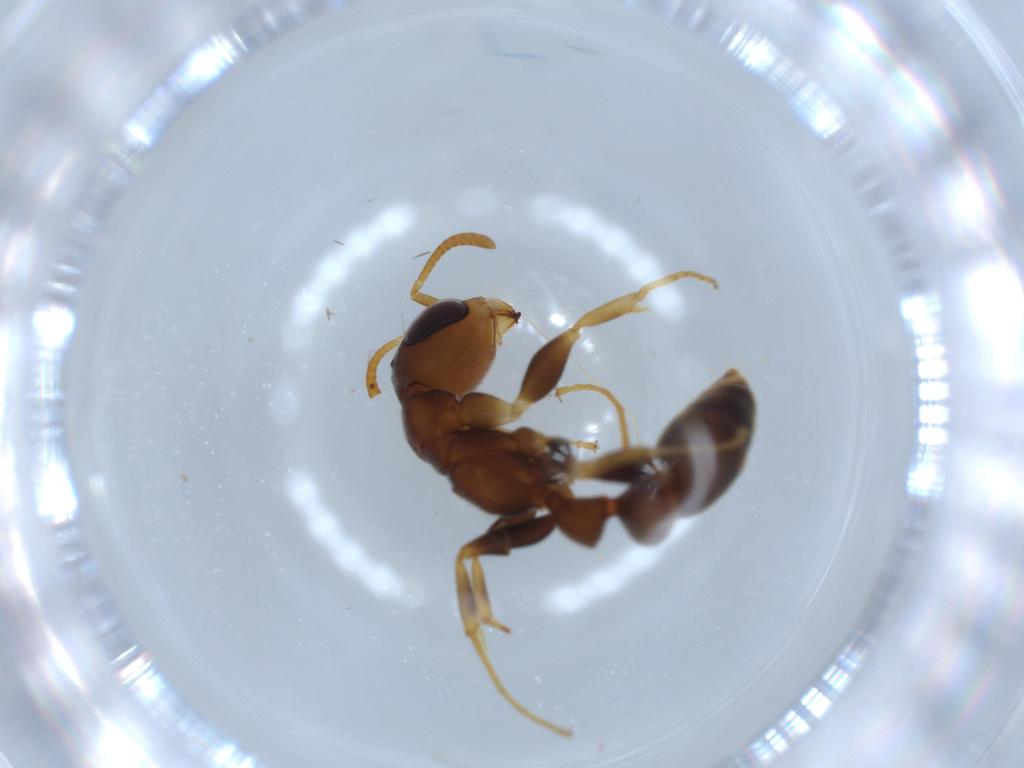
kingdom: Animalia
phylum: Arthropoda
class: Insecta
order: Hymenoptera
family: Formicidae
